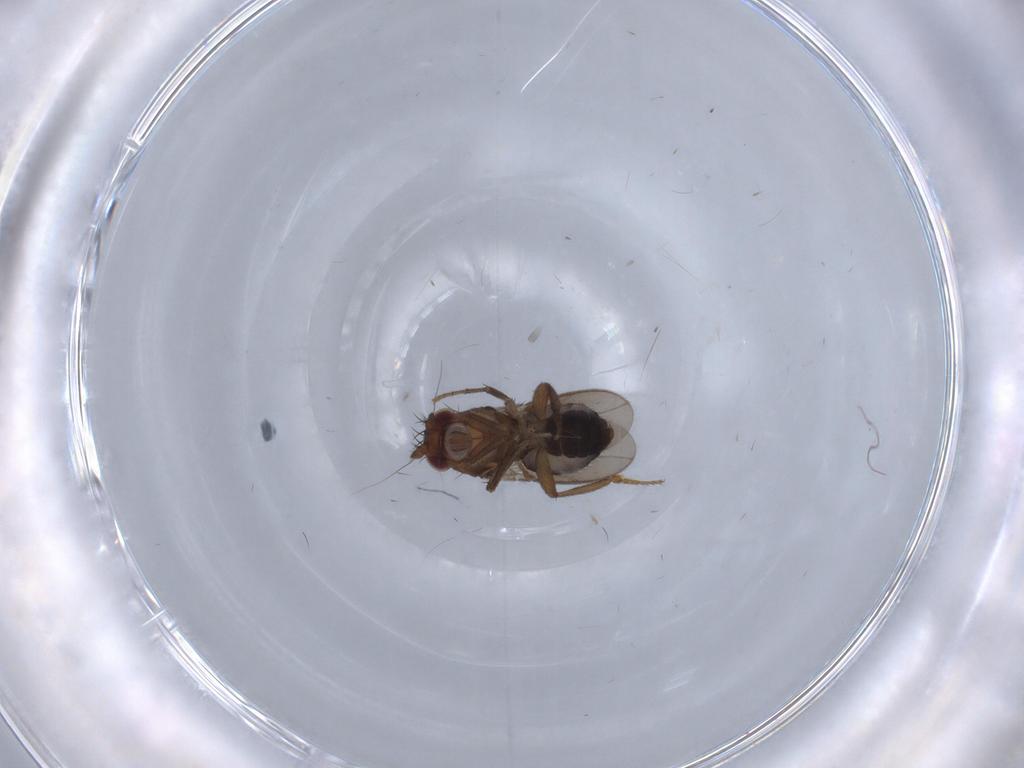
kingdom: Animalia
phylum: Arthropoda
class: Insecta
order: Diptera
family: Sphaeroceridae
